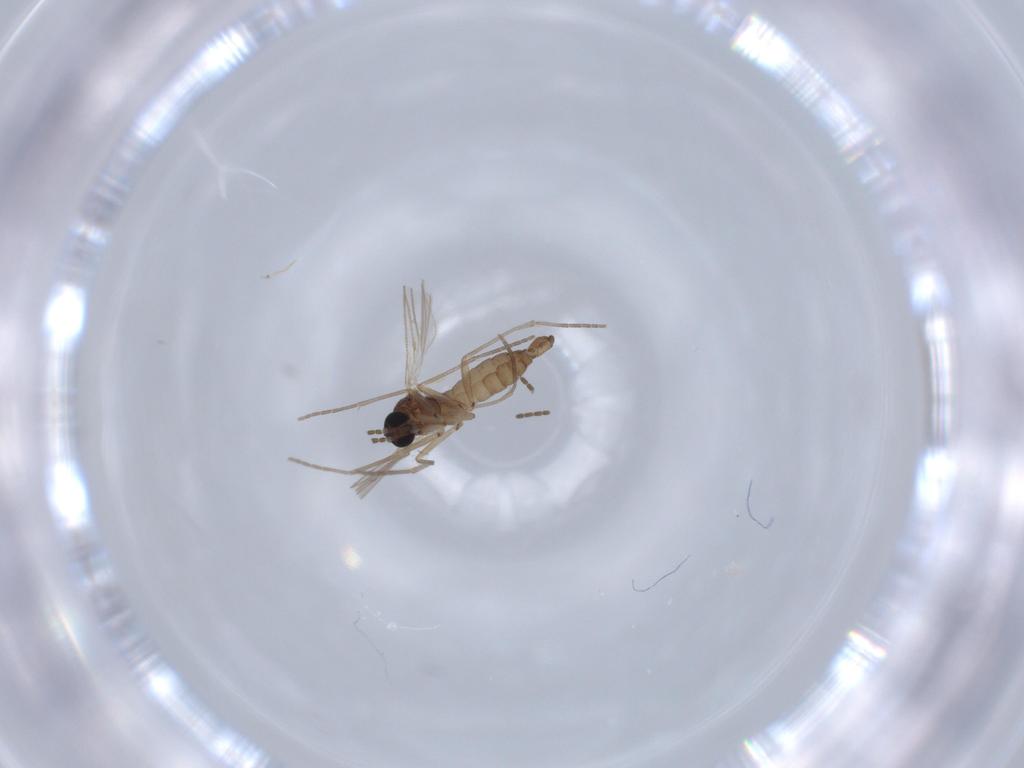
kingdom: Animalia
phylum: Arthropoda
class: Insecta
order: Diptera
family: Sciaridae
